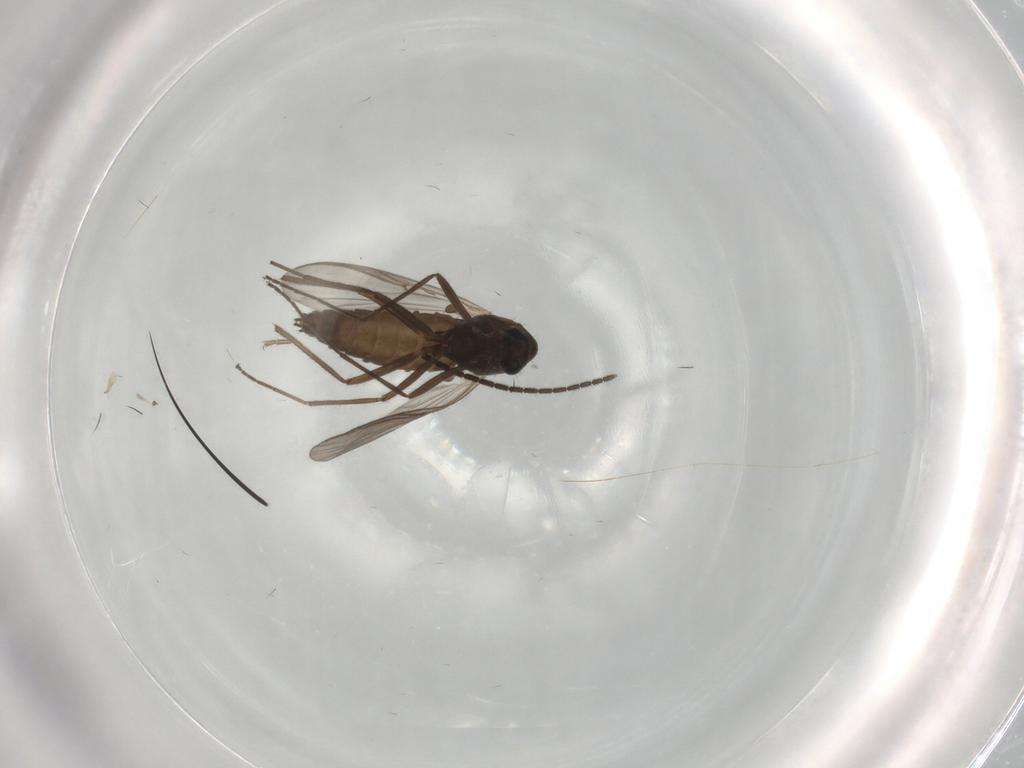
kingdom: Animalia
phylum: Arthropoda
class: Insecta
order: Diptera
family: Chironomidae
